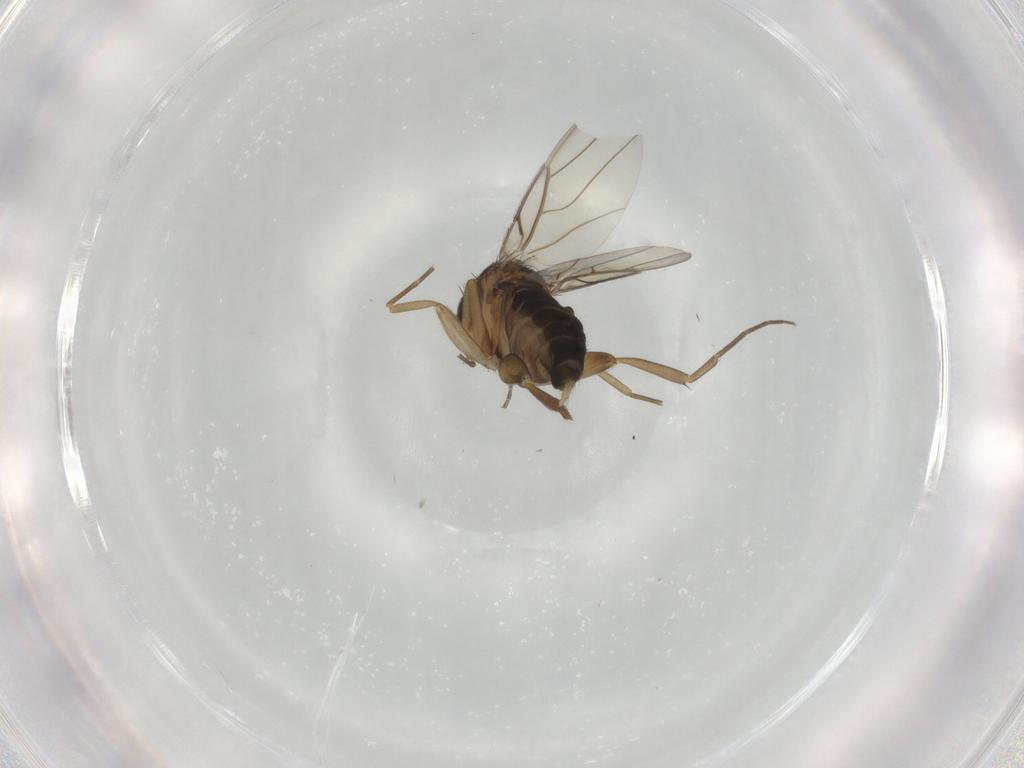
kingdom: Animalia
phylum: Arthropoda
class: Insecta
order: Diptera
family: Phoridae
